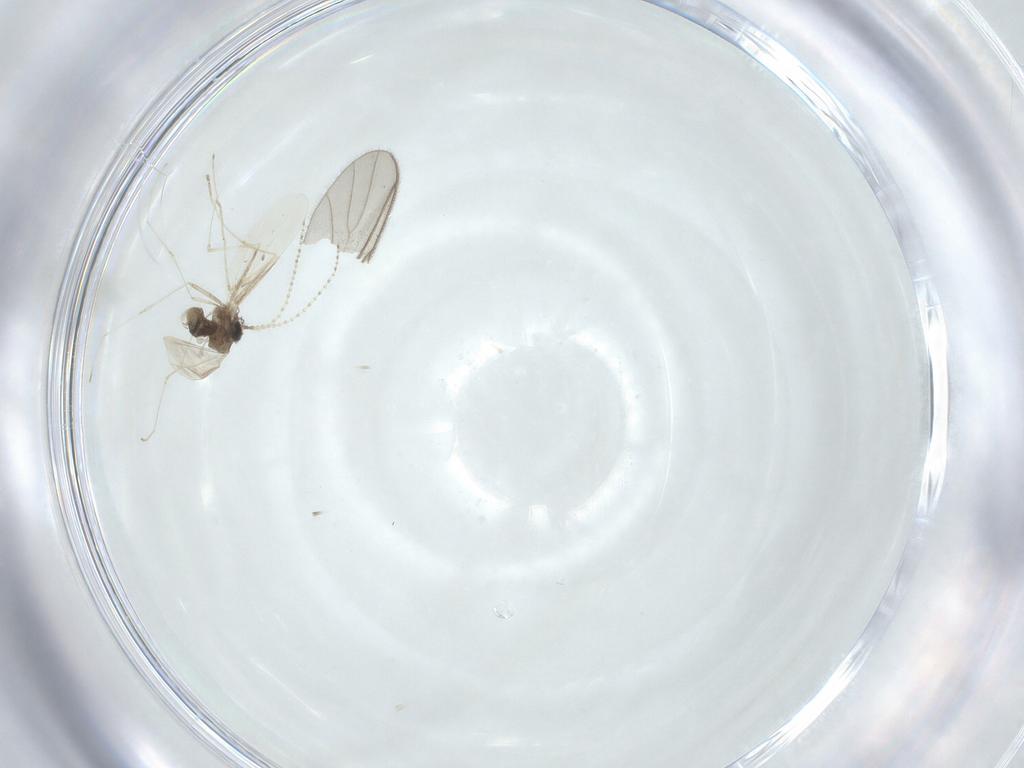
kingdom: Animalia
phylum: Arthropoda
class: Insecta
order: Diptera
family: Cecidomyiidae
